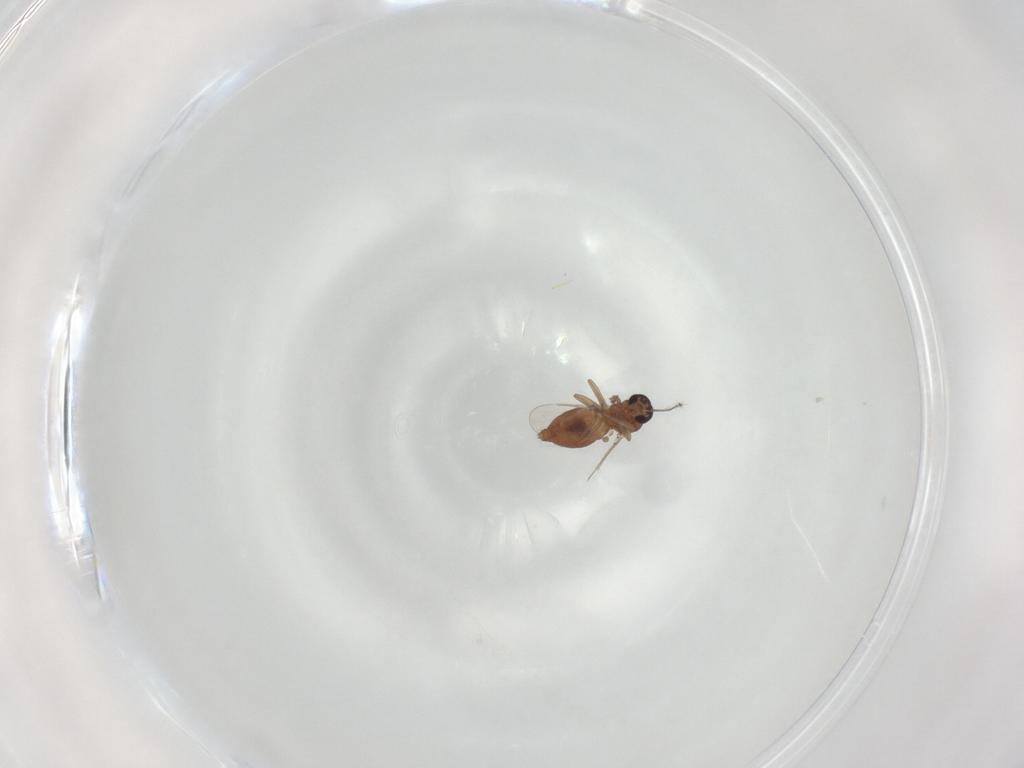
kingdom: Animalia
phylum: Arthropoda
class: Insecta
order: Diptera
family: Ceratopogonidae
